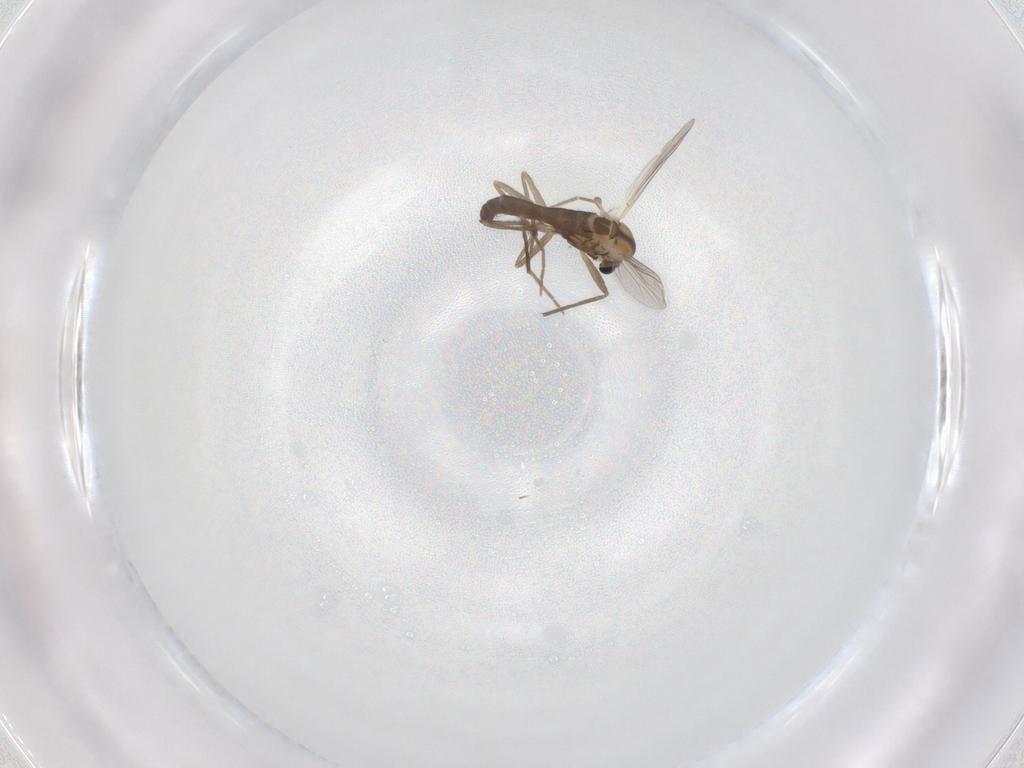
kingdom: Animalia
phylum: Arthropoda
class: Insecta
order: Diptera
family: Chironomidae
